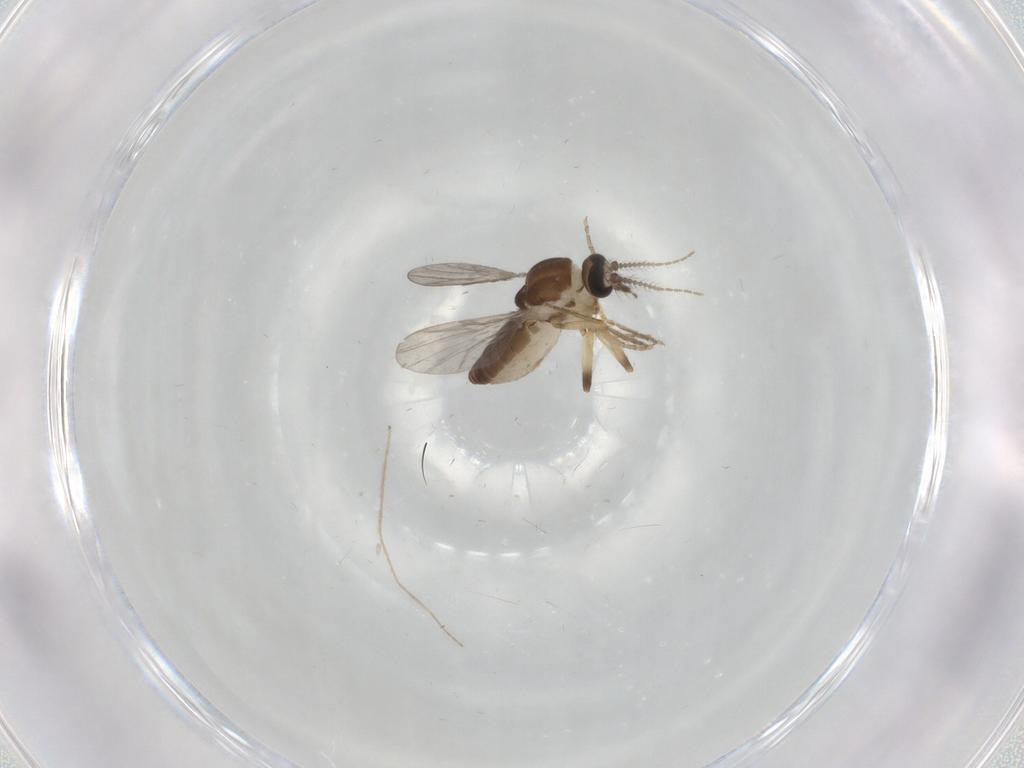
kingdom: Animalia
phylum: Arthropoda
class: Insecta
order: Diptera
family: Ceratopogonidae
